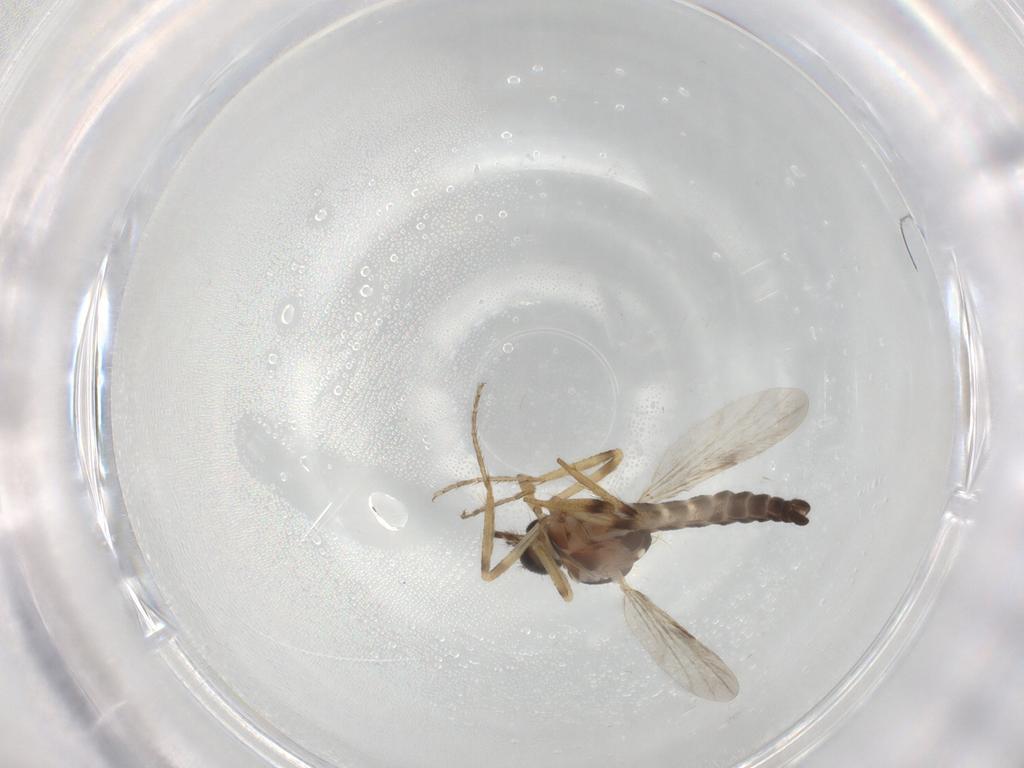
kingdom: Animalia
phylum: Arthropoda
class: Insecta
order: Diptera
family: Ceratopogonidae
